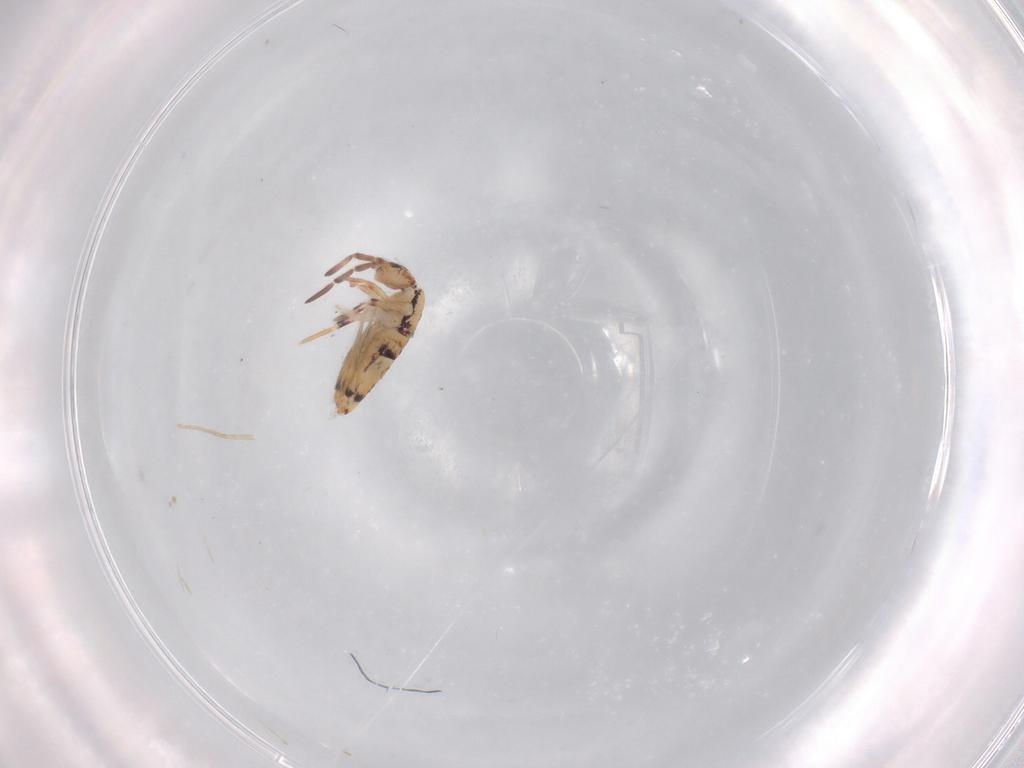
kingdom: Animalia
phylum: Arthropoda
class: Collembola
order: Entomobryomorpha
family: Entomobryidae
